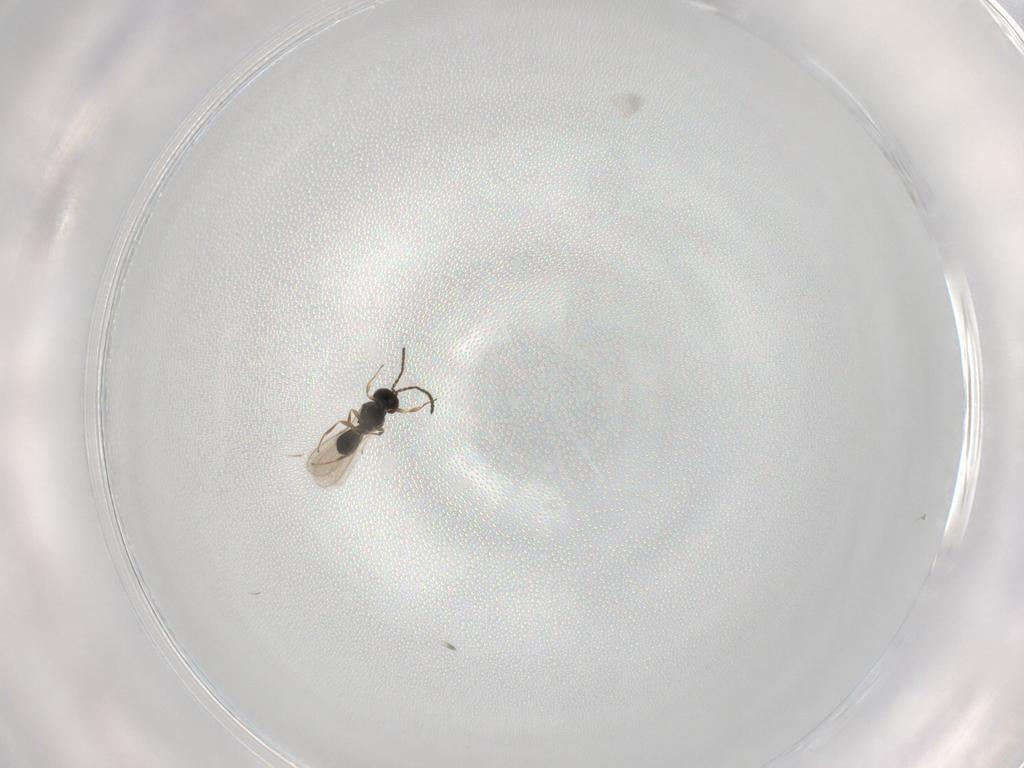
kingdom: Animalia
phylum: Arthropoda
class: Insecta
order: Hymenoptera
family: Scelionidae
